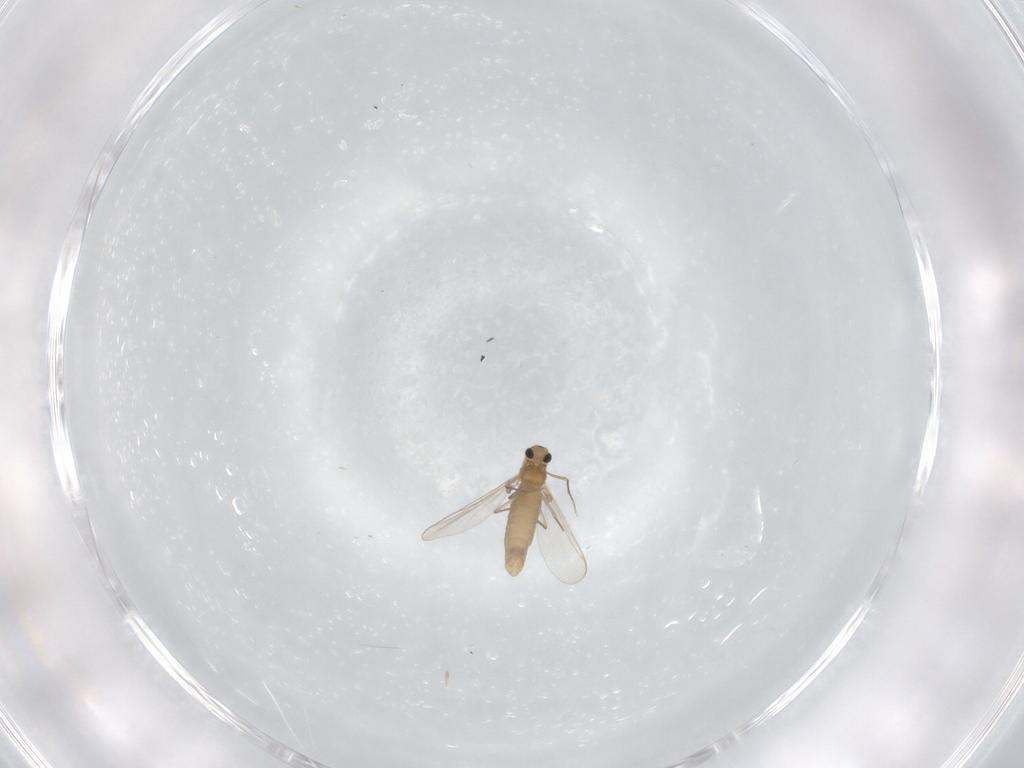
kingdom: Animalia
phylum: Arthropoda
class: Insecta
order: Diptera
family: Chironomidae
